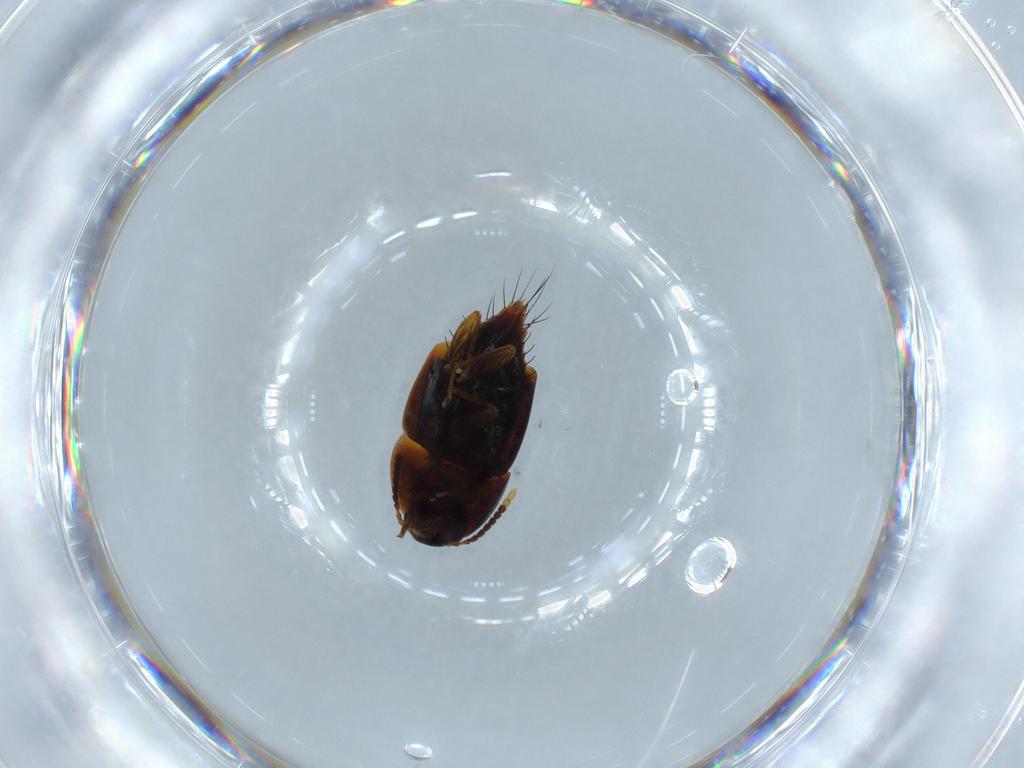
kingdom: Animalia
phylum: Arthropoda
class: Insecta
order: Coleoptera
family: Staphylinidae
